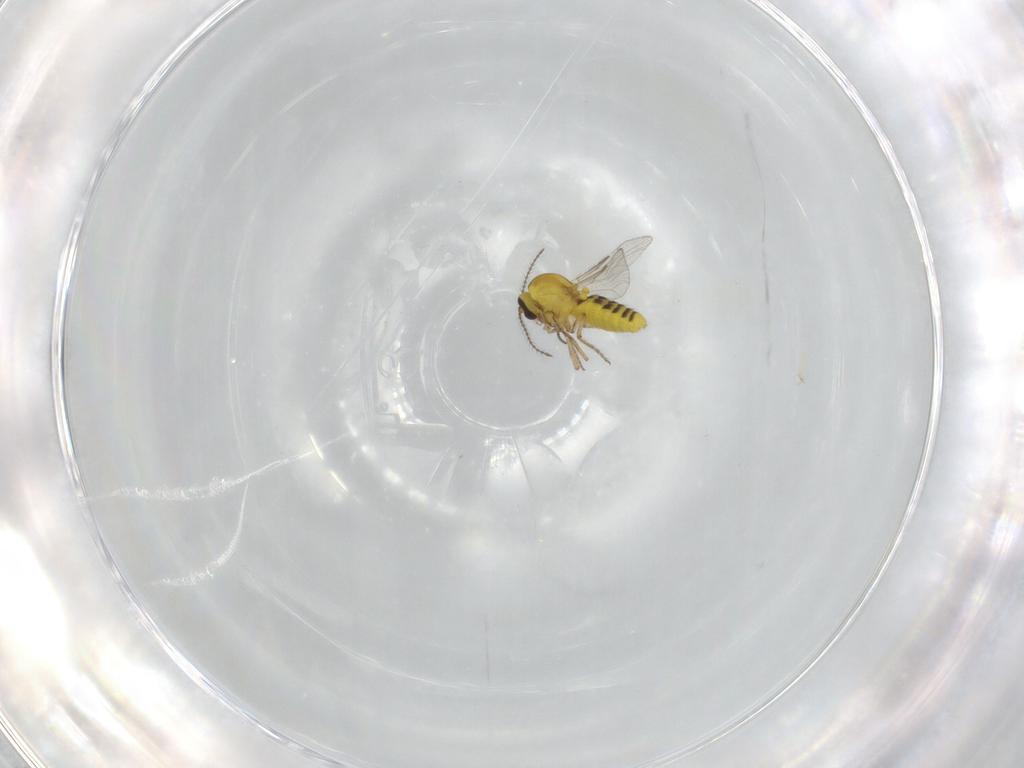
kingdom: Animalia
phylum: Arthropoda
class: Insecta
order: Diptera
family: Ceratopogonidae
